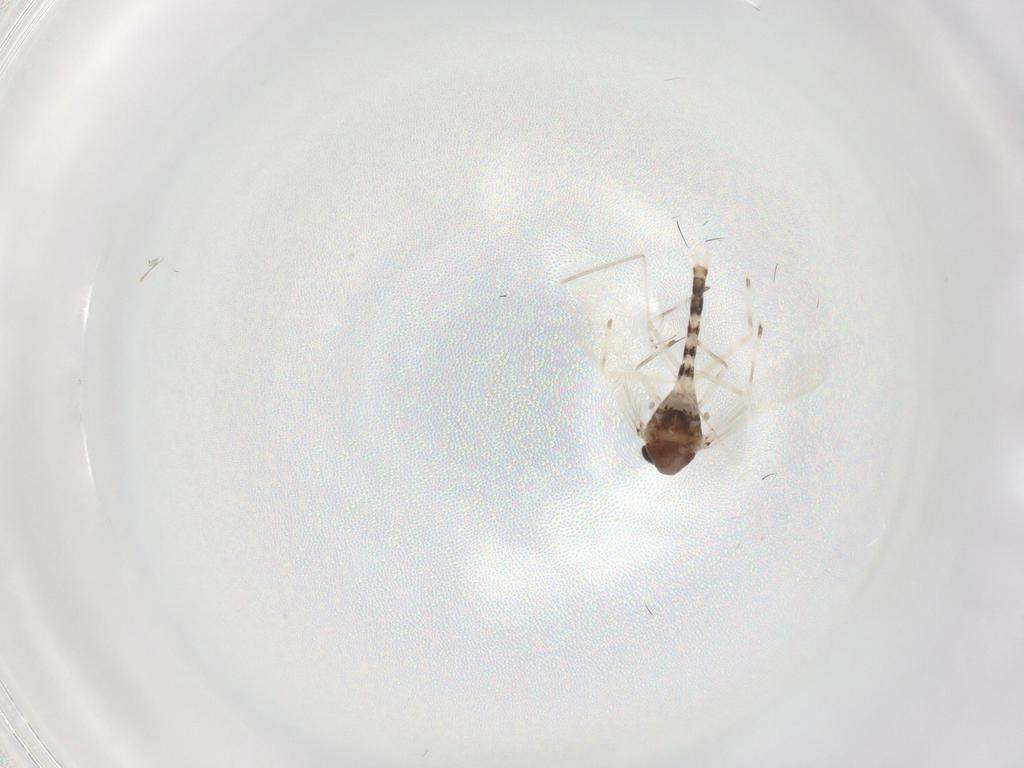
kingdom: Animalia
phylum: Arthropoda
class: Insecta
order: Diptera
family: Chironomidae
